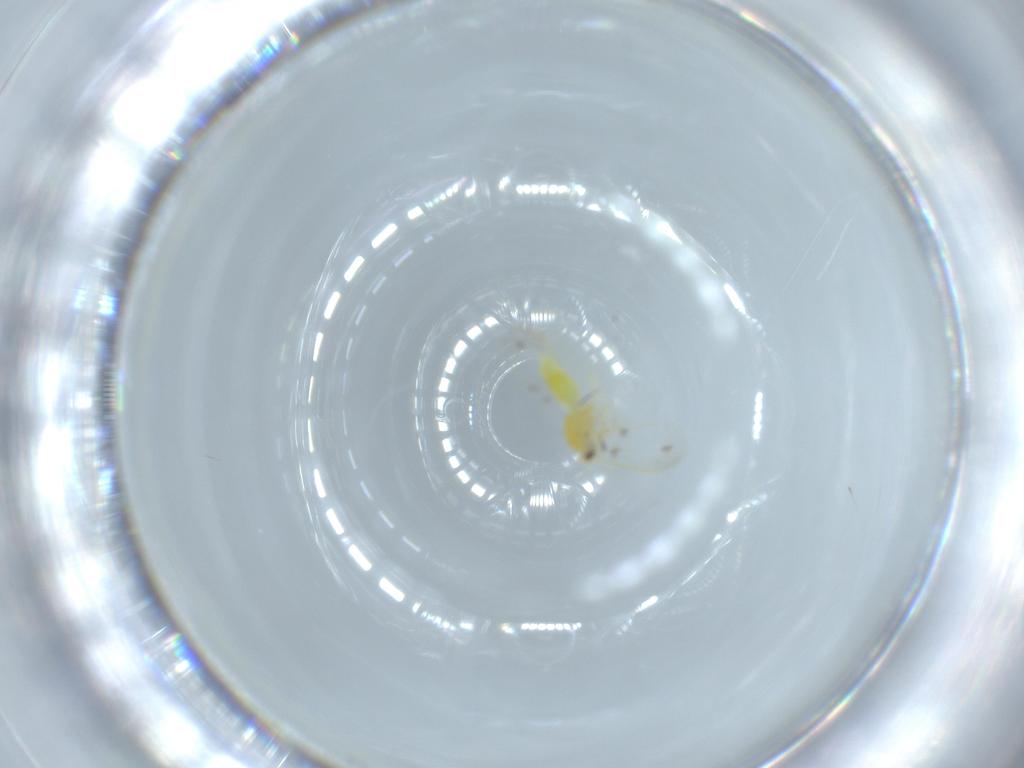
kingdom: Animalia
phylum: Arthropoda
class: Insecta
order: Hemiptera
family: Aleyrodidae
